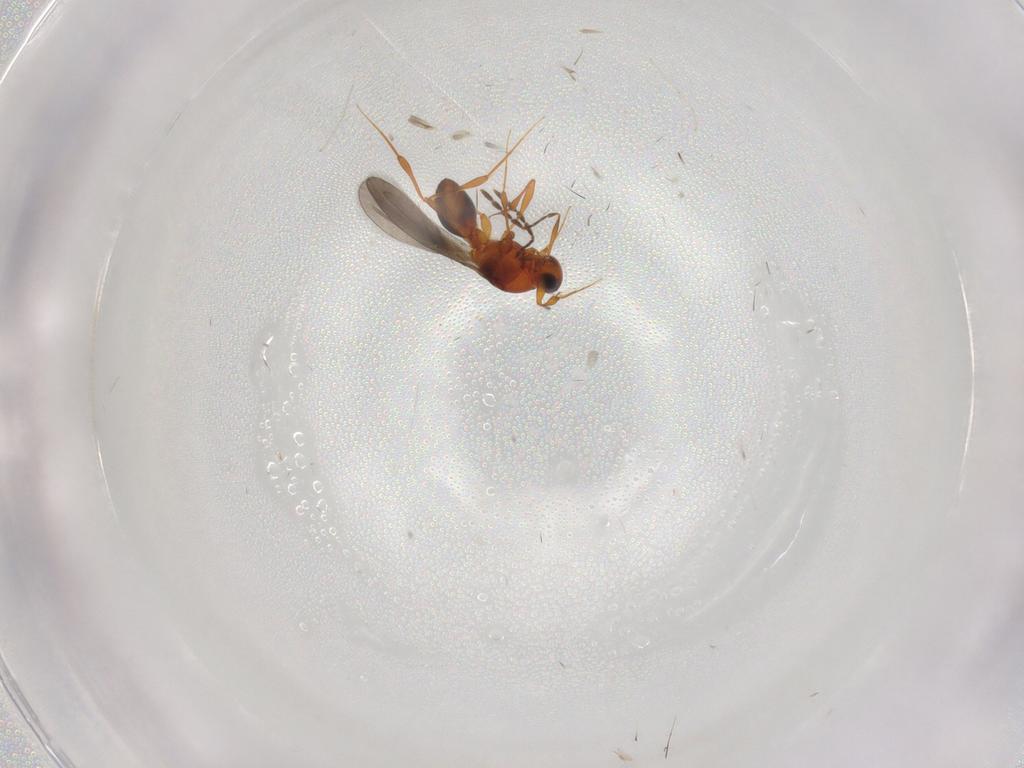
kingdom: Animalia
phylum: Arthropoda
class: Insecta
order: Hymenoptera
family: Platygastridae
